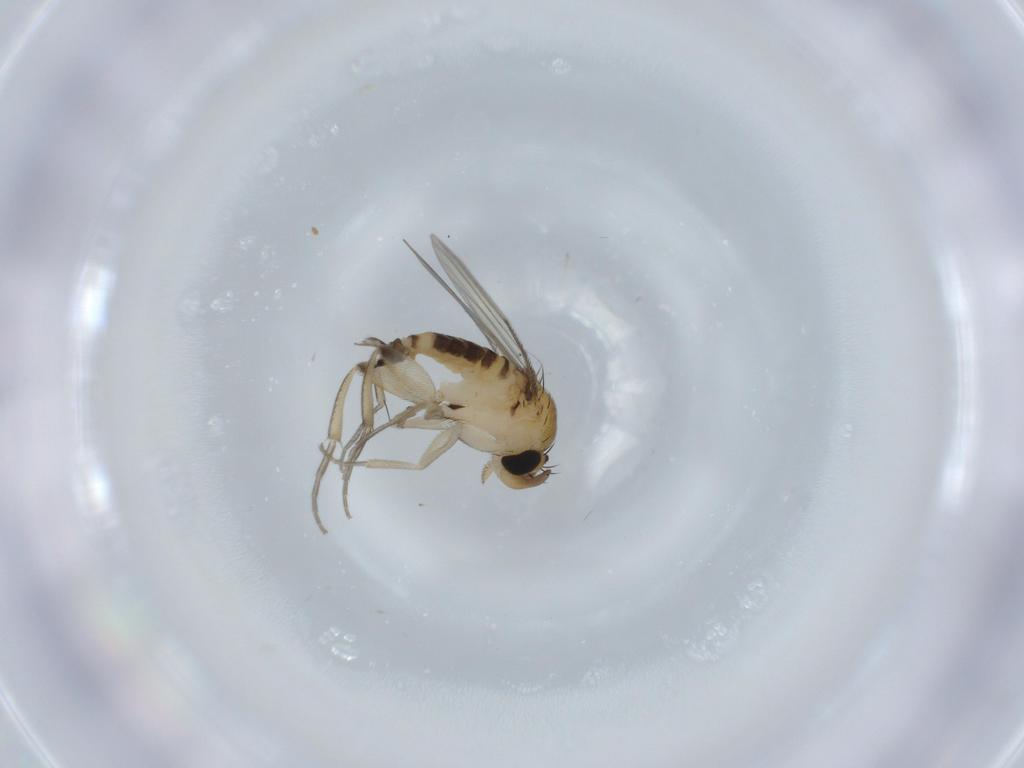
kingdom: Animalia
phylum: Arthropoda
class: Insecta
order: Diptera
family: Phoridae
